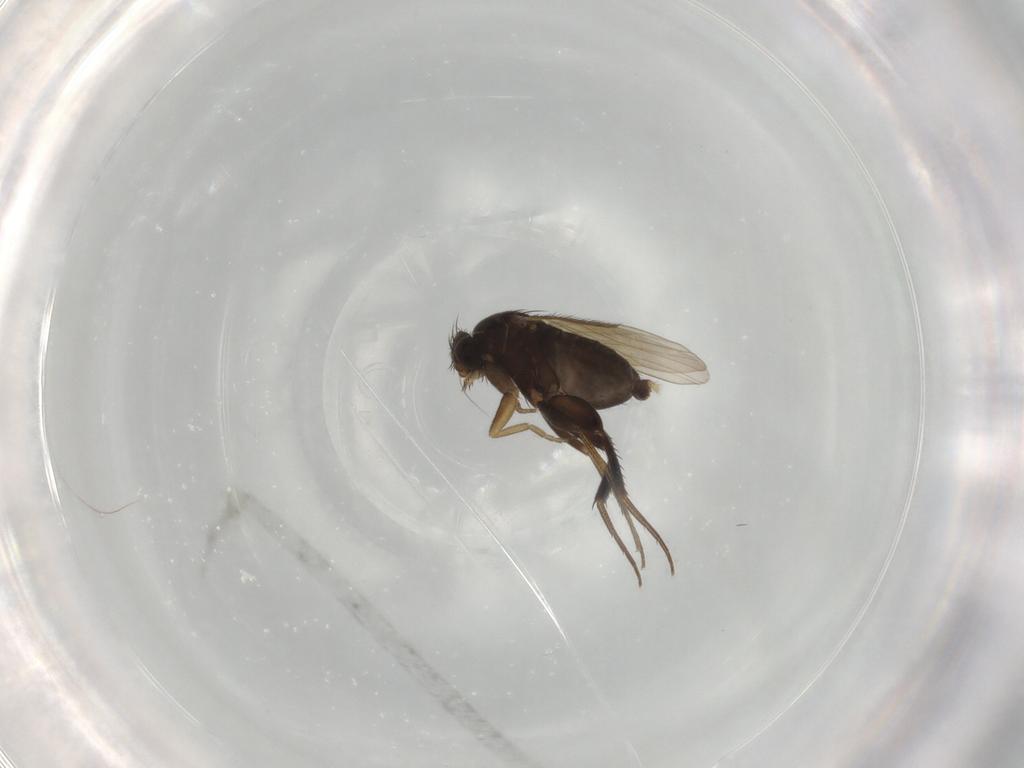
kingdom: Animalia
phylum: Arthropoda
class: Insecta
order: Diptera
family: Phoridae
